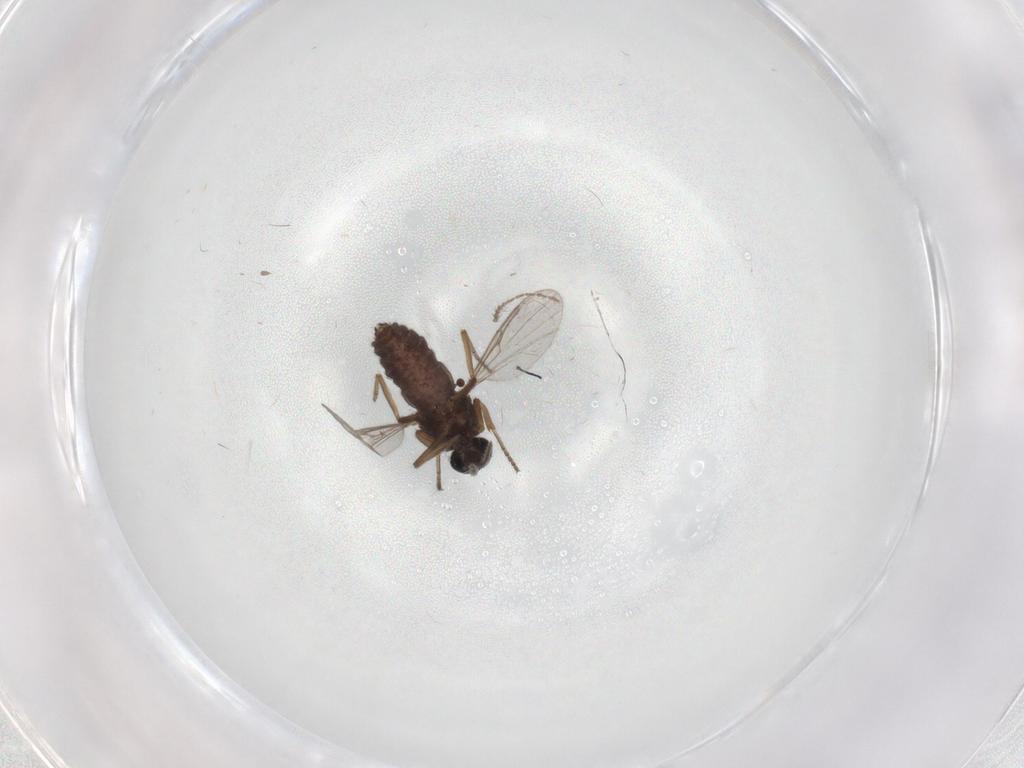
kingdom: Animalia
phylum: Arthropoda
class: Insecta
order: Diptera
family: Ceratopogonidae
